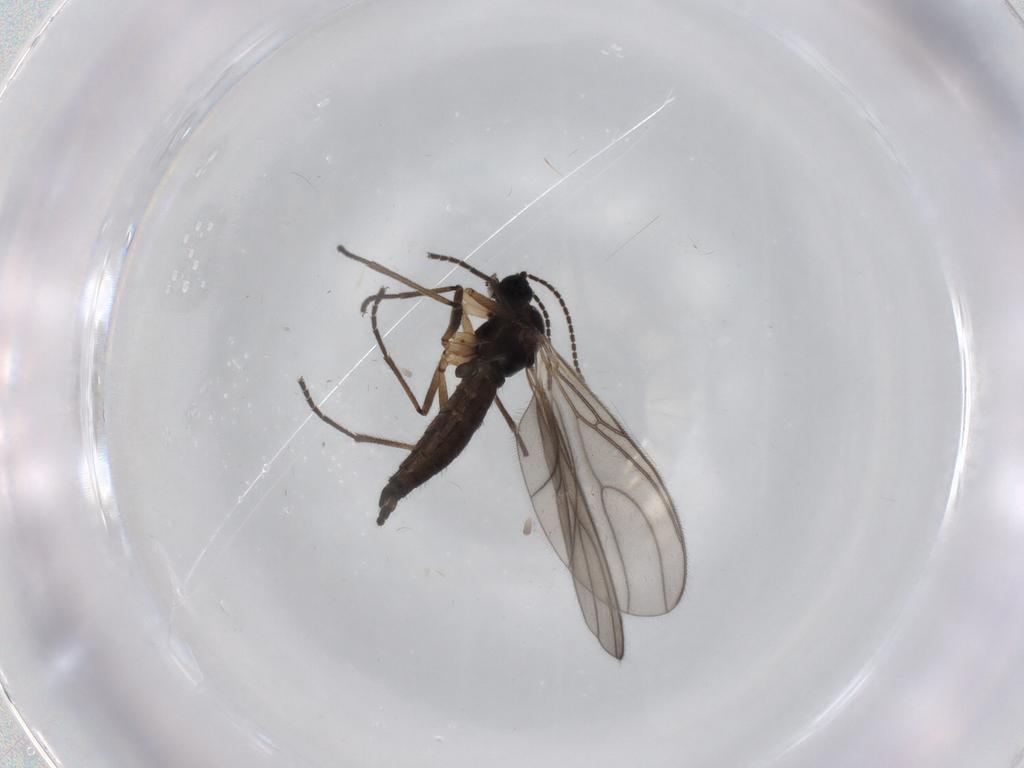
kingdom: Animalia
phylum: Arthropoda
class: Insecta
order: Diptera
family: Sciaridae
